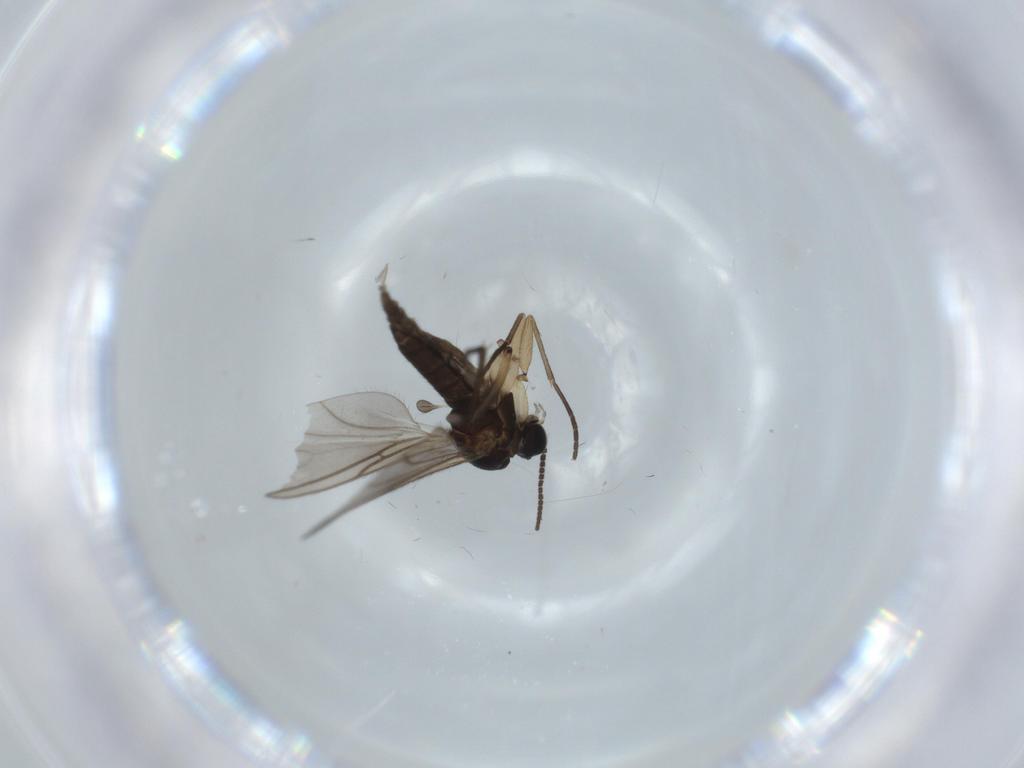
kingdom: Animalia
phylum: Arthropoda
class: Insecta
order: Diptera
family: Sciaridae
